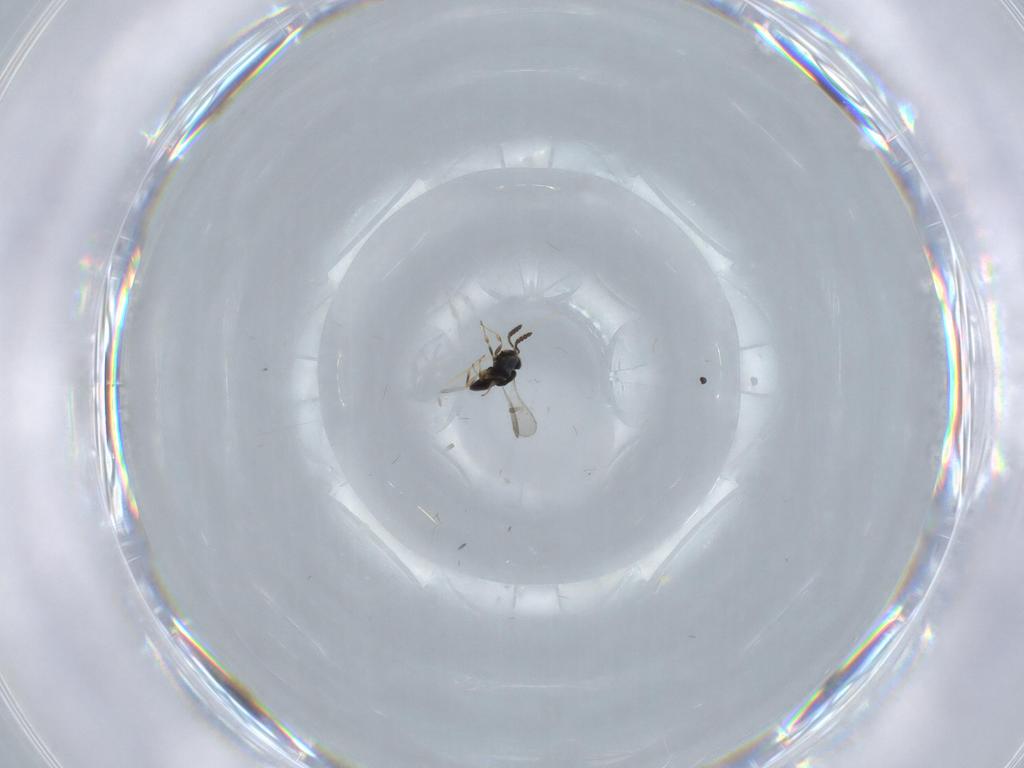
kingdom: Animalia
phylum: Arthropoda
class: Insecta
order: Hymenoptera
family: Scelionidae
